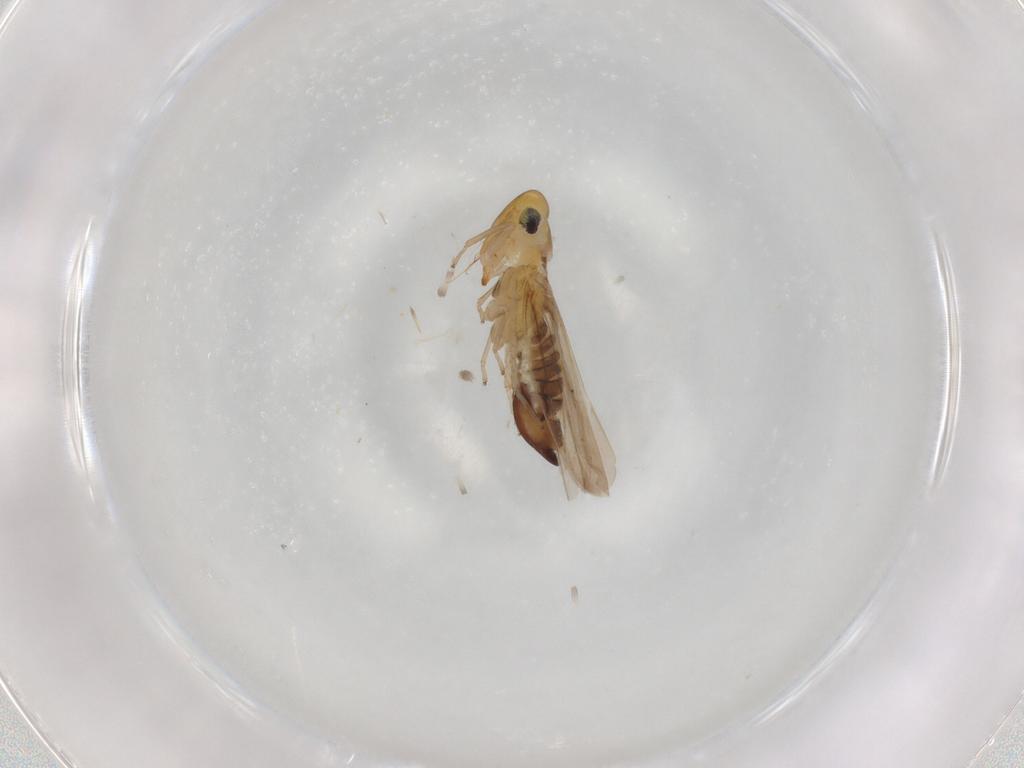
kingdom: Animalia
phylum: Arthropoda
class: Insecta
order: Hemiptera
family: Cicadellidae
